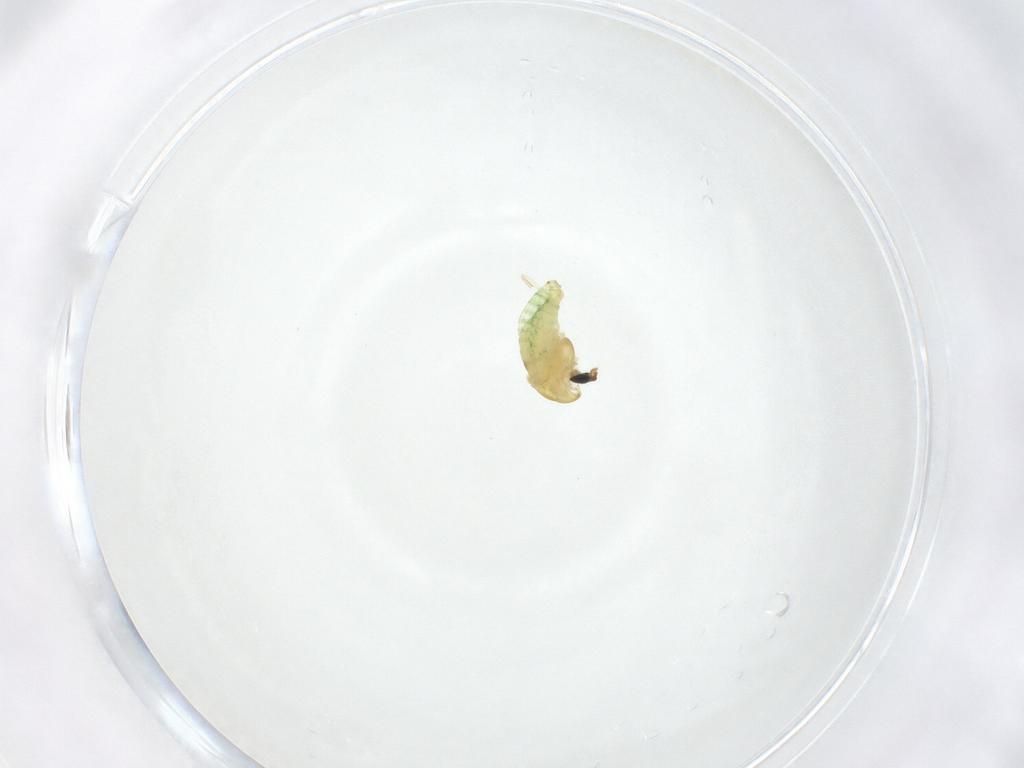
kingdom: Animalia
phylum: Arthropoda
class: Insecta
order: Diptera
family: Chironomidae
